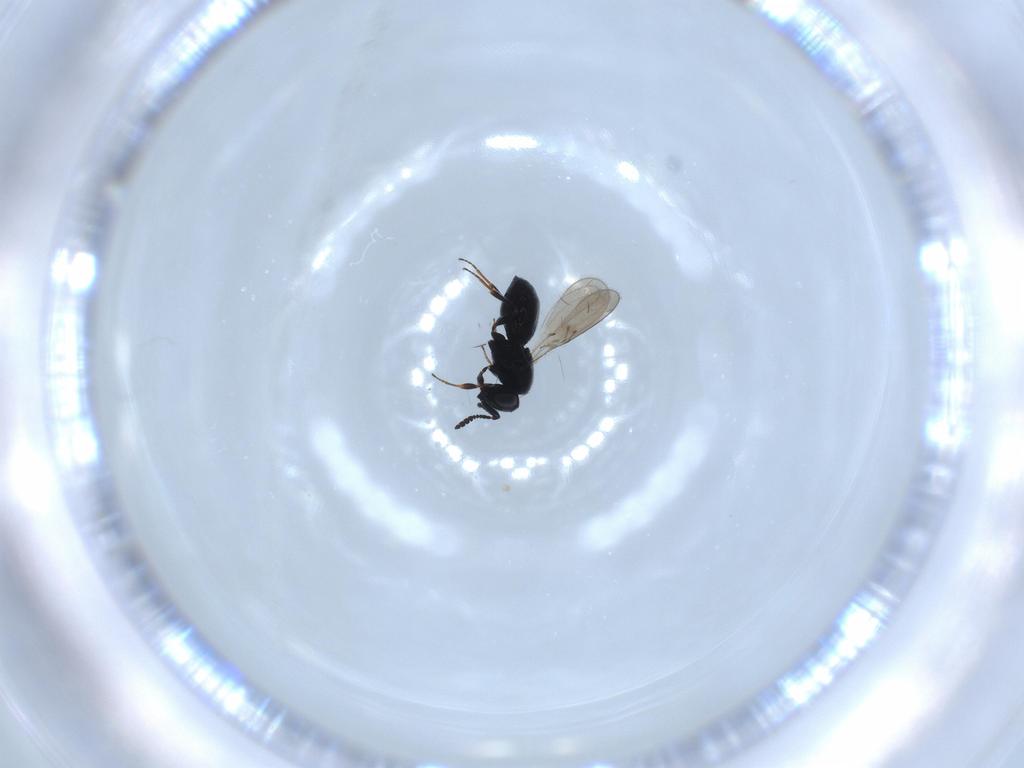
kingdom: Animalia
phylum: Arthropoda
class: Insecta
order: Hymenoptera
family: Scelionidae
